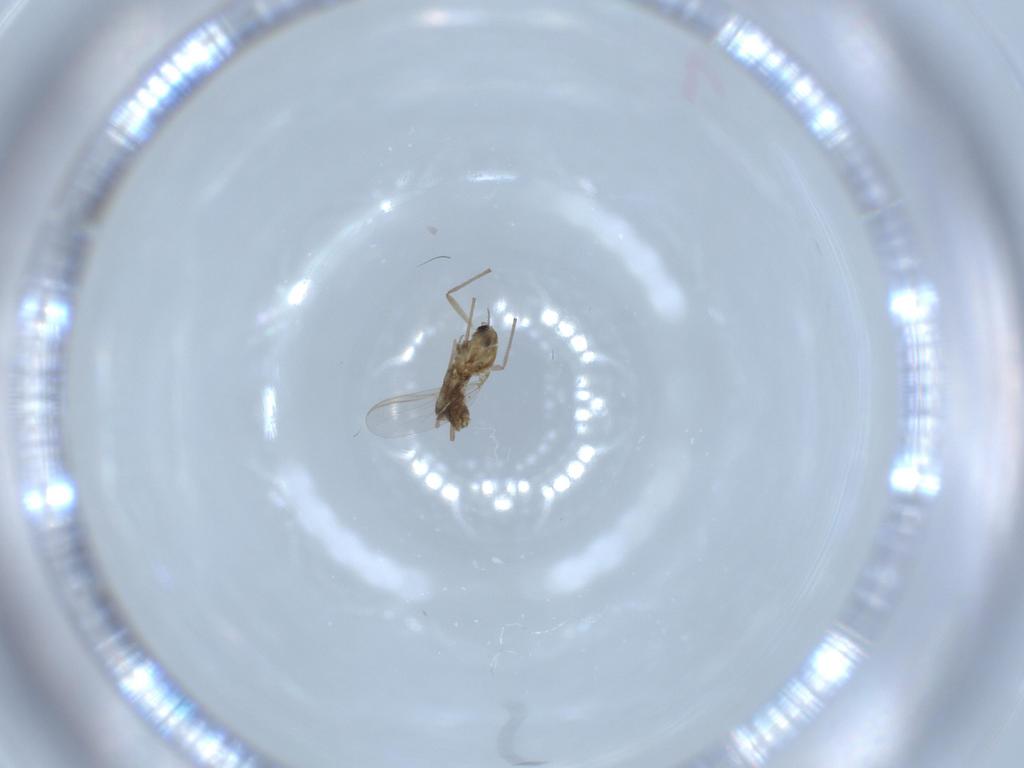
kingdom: Animalia
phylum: Arthropoda
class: Insecta
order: Diptera
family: Chironomidae
